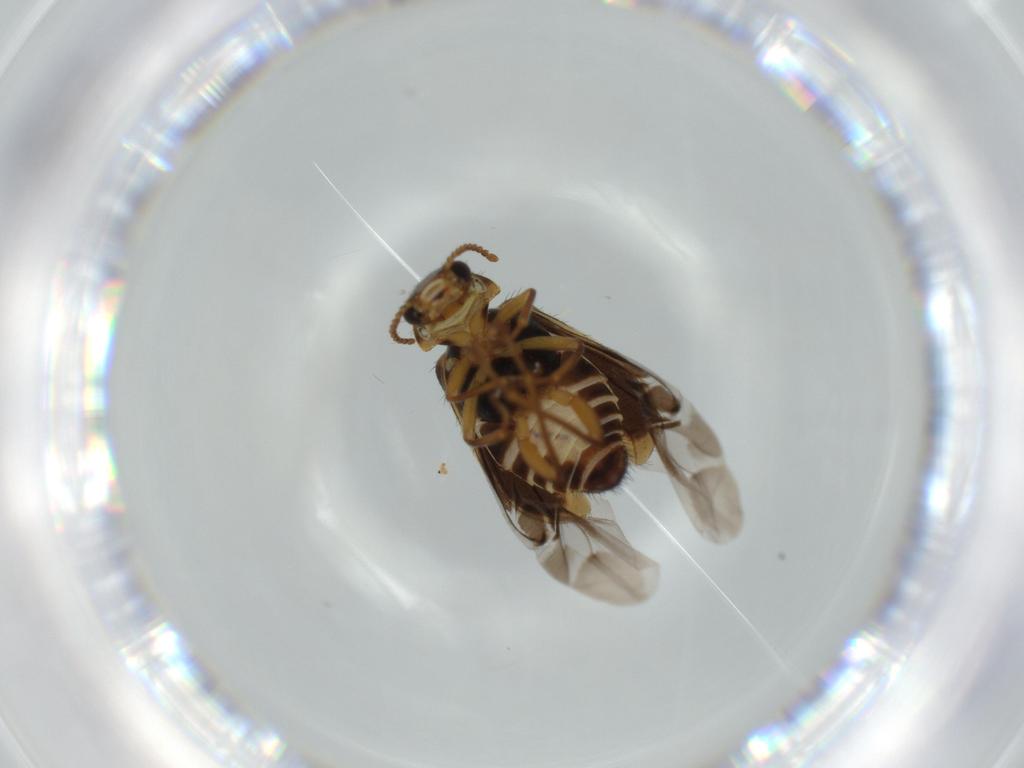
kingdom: Animalia
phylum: Arthropoda
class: Insecta
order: Coleoptera
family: Melyridae
